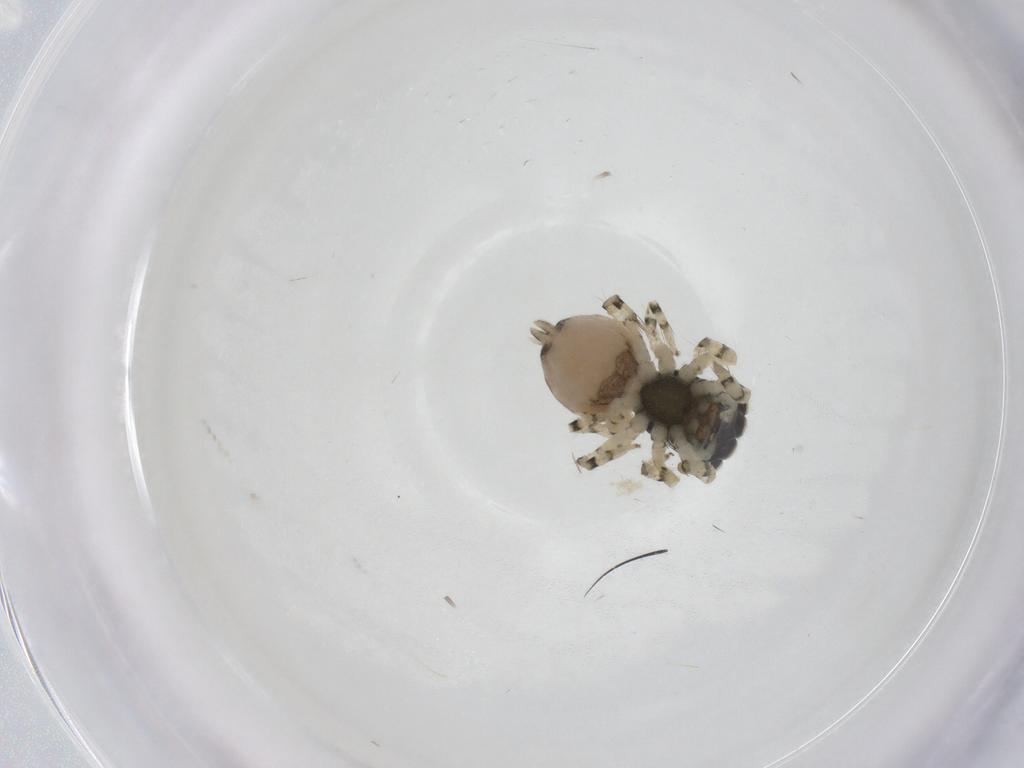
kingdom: Animalia
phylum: Arthropoda
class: Arachnida
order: Araneae
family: Salticidae
